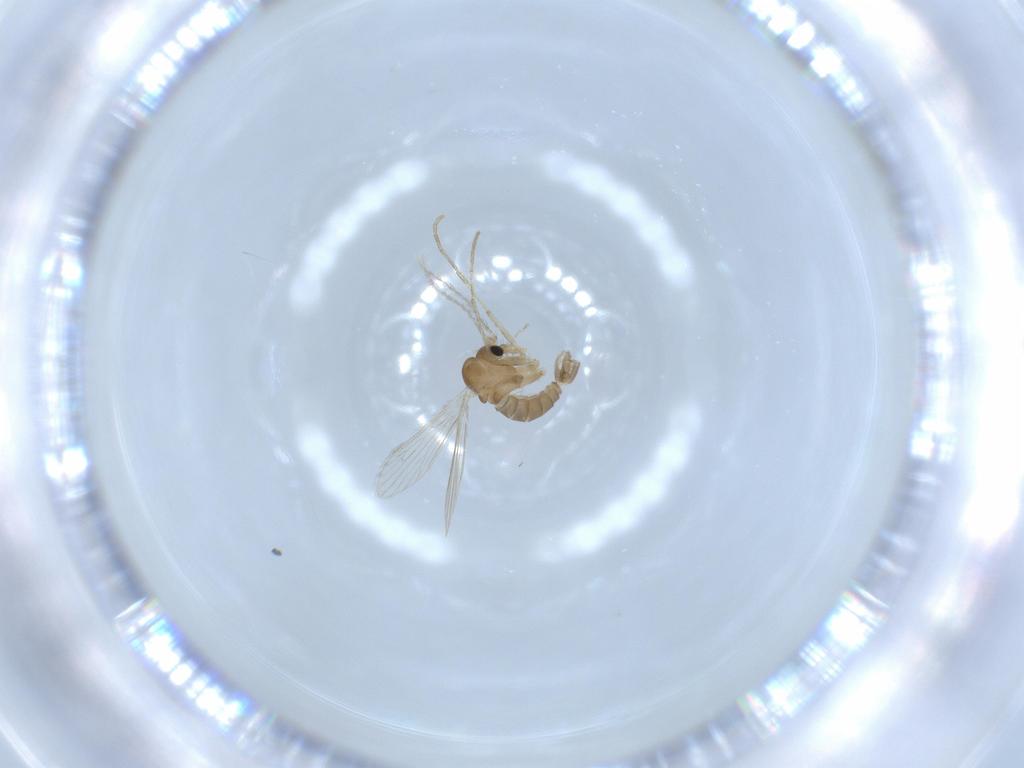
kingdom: Animalia
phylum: Arthropoda
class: Insecta
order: Diptera
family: Psychodidae
